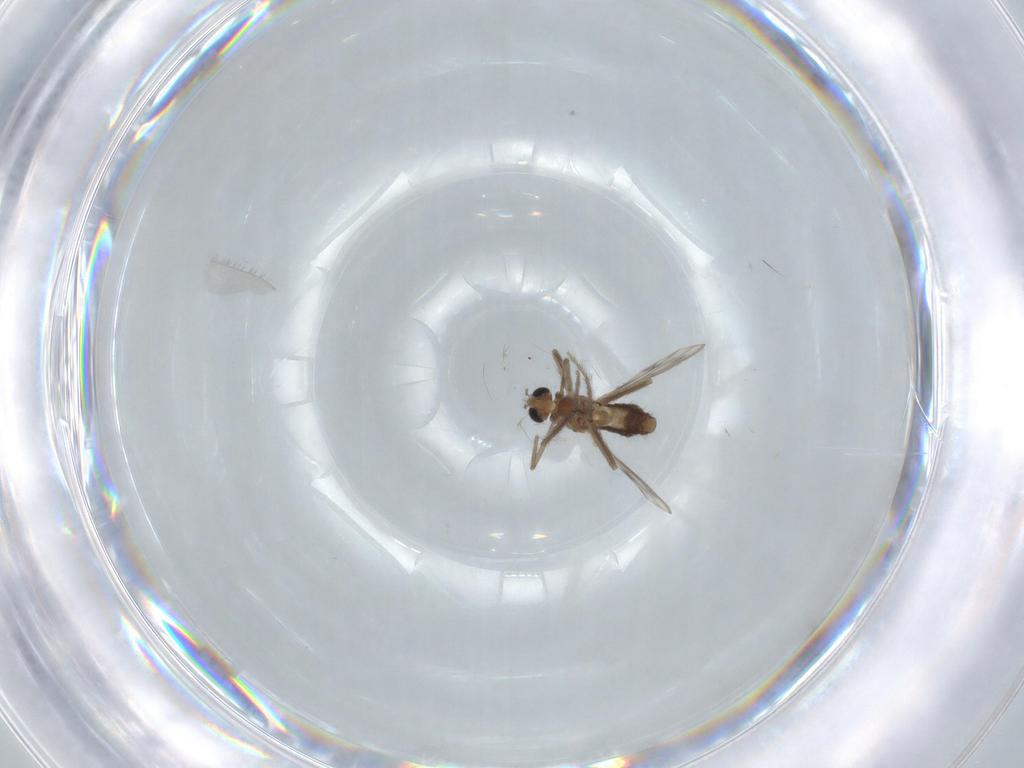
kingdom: Animalia
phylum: Arthropoda
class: Insecta
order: Diptera
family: Chironomidae
